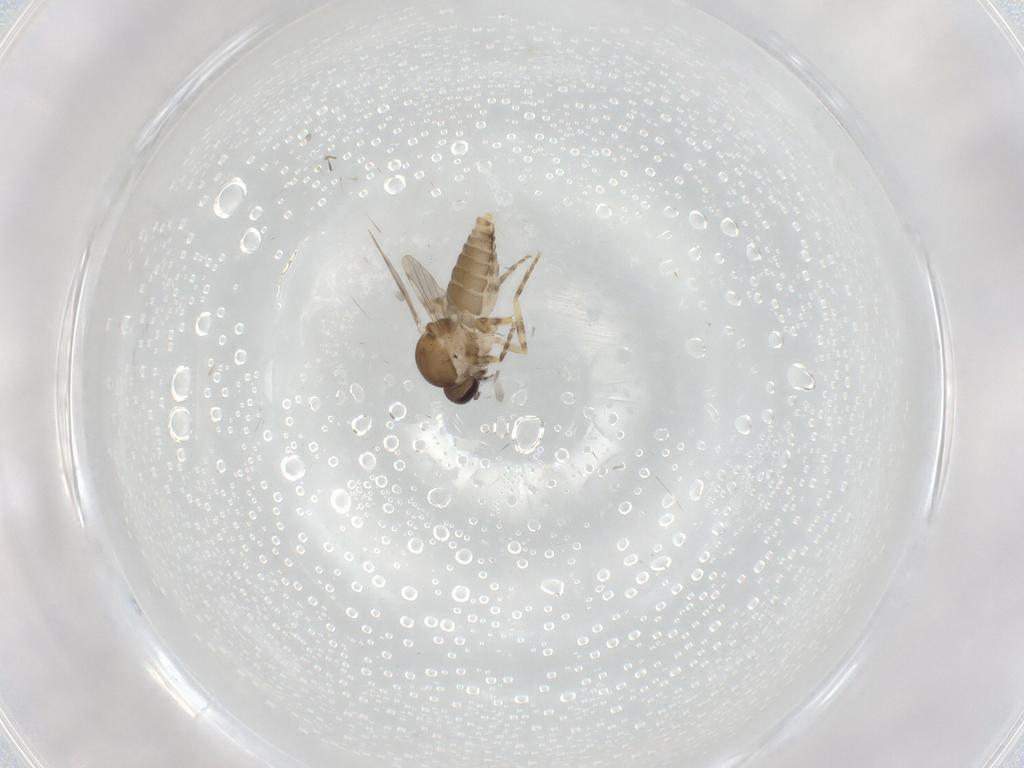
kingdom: Animalia
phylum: Arthropoda
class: Insecta
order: Diptera
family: Ceratopogonidae
